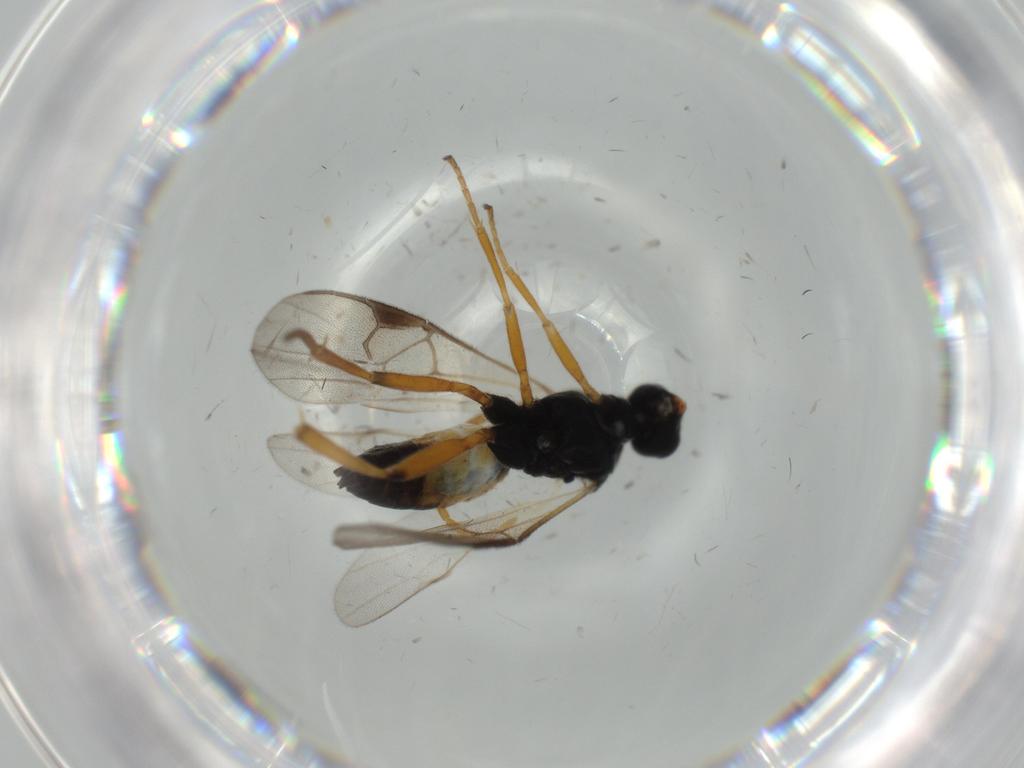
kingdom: Animalia
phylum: Arthropoda
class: Insecta
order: Hymenoptera
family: Braconidae
